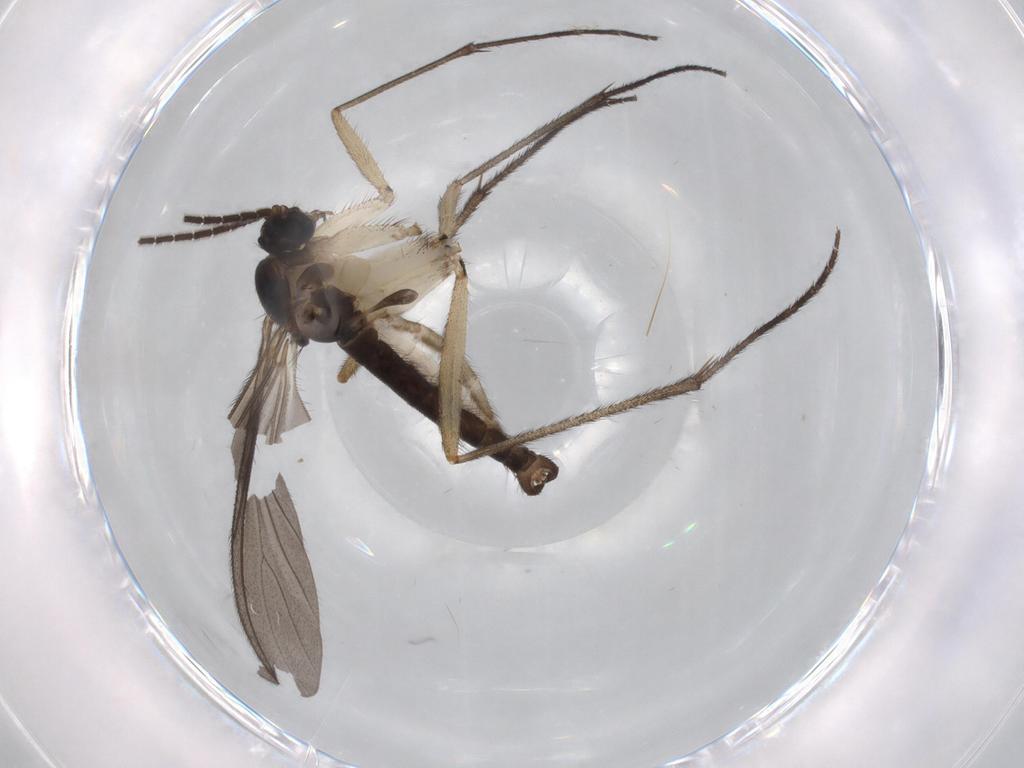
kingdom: Animalia
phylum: Arthropoda
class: Insecta
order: Diptera
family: Sciaridae
